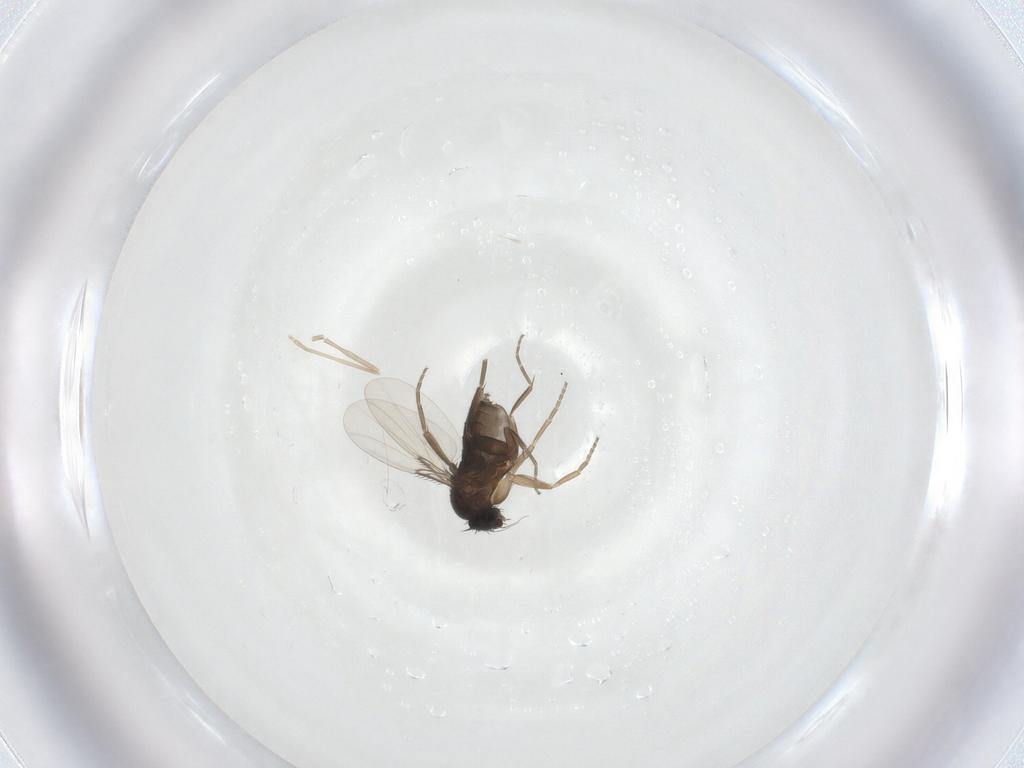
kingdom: Animalia
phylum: Arthropoda
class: Insecta
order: Diptera
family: Phoridae
